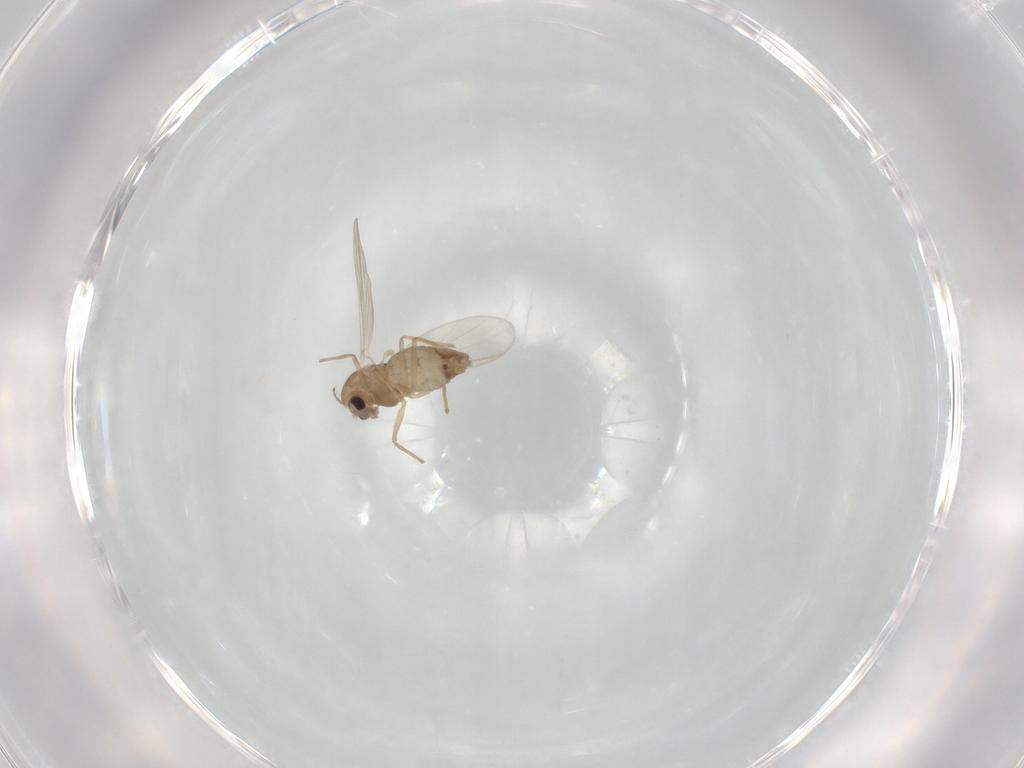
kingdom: Animalia
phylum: Arthropoda
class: Insecta
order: Diptera
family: Chironomidae
